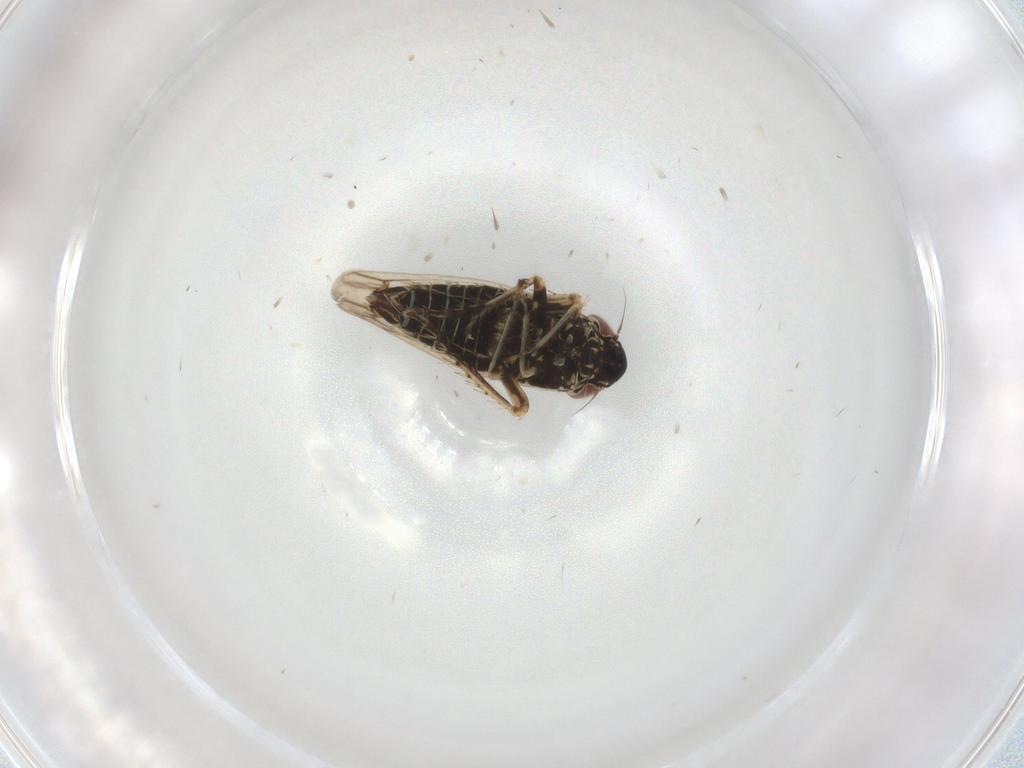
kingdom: Animalia
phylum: Arthropoda
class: Insecta
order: Hemiptera
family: Cicadellidae
